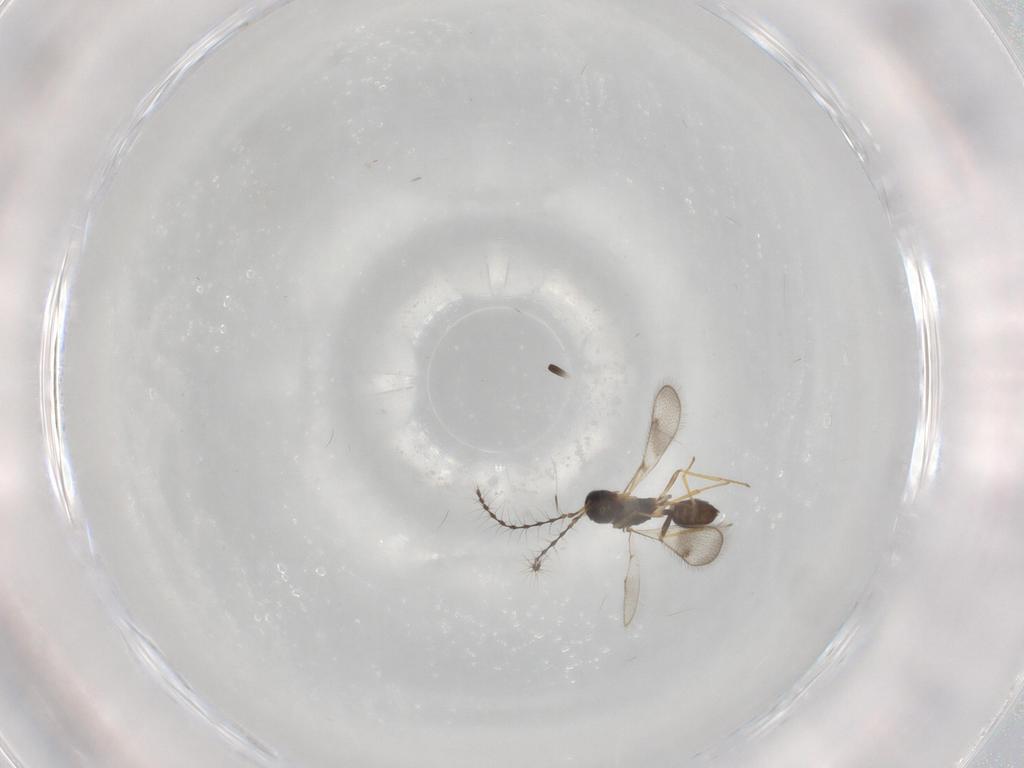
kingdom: Animalia
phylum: Arthropoda
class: Insecta
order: Hymenoptera
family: Diparidae
